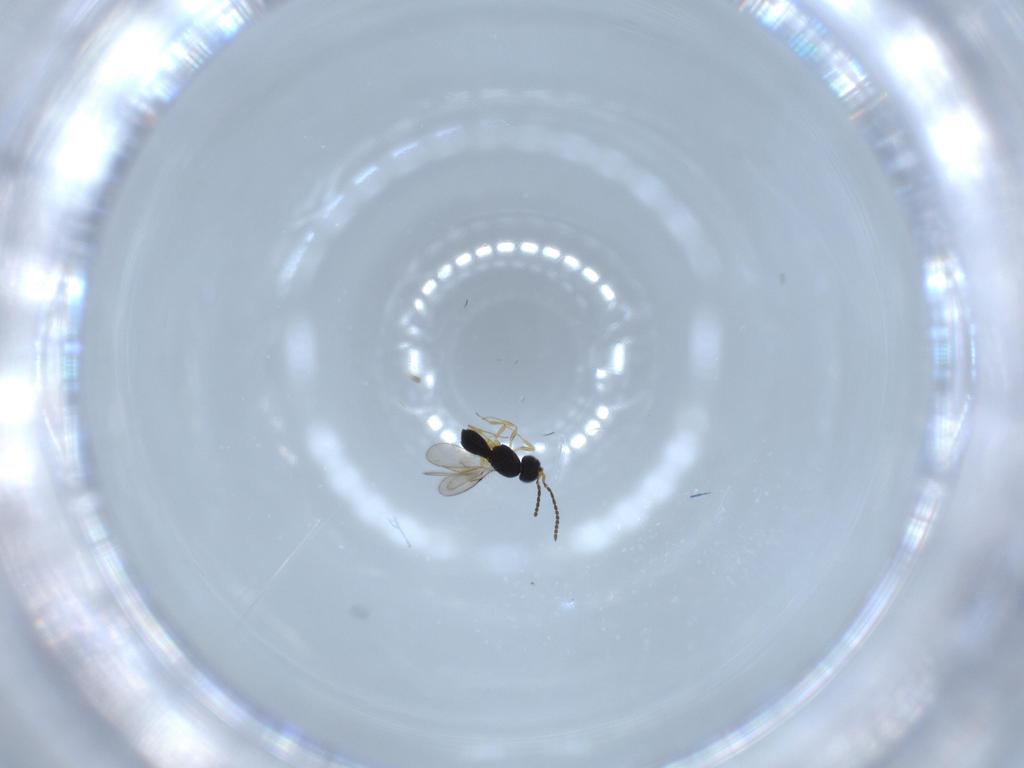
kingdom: Animalia
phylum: Arthropoda
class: Insecta
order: Hymenoptera
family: Scelionidae
